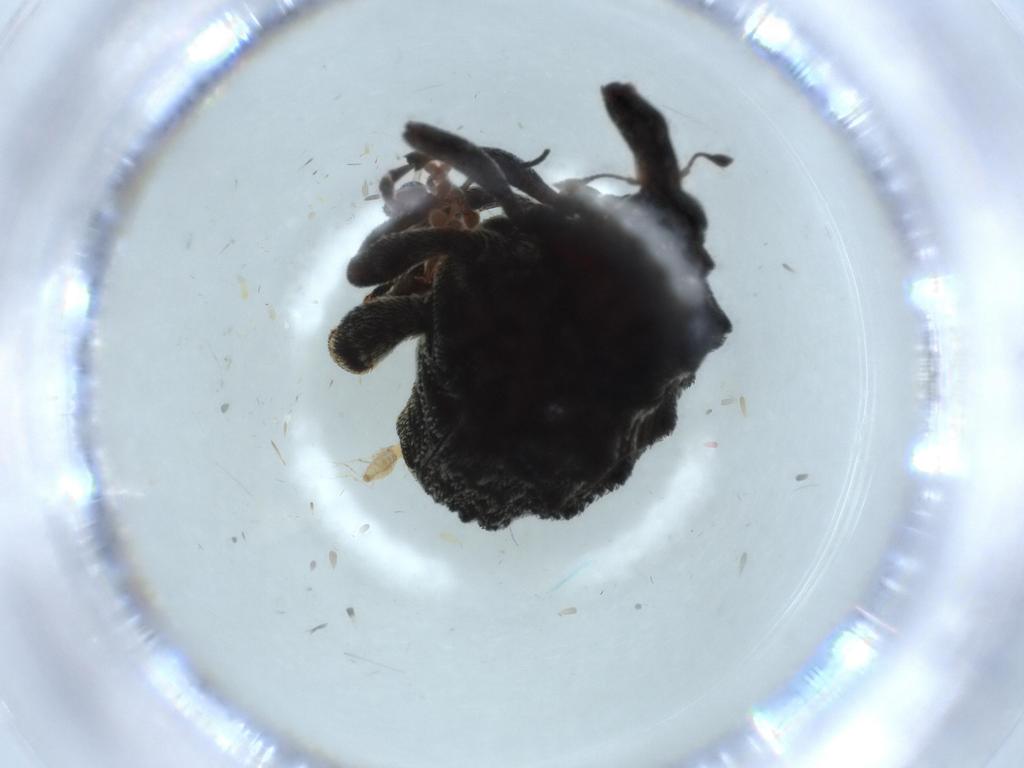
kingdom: Animalia
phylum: Arthropoda
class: Insecta
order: Coleoptera
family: Curculionidae
